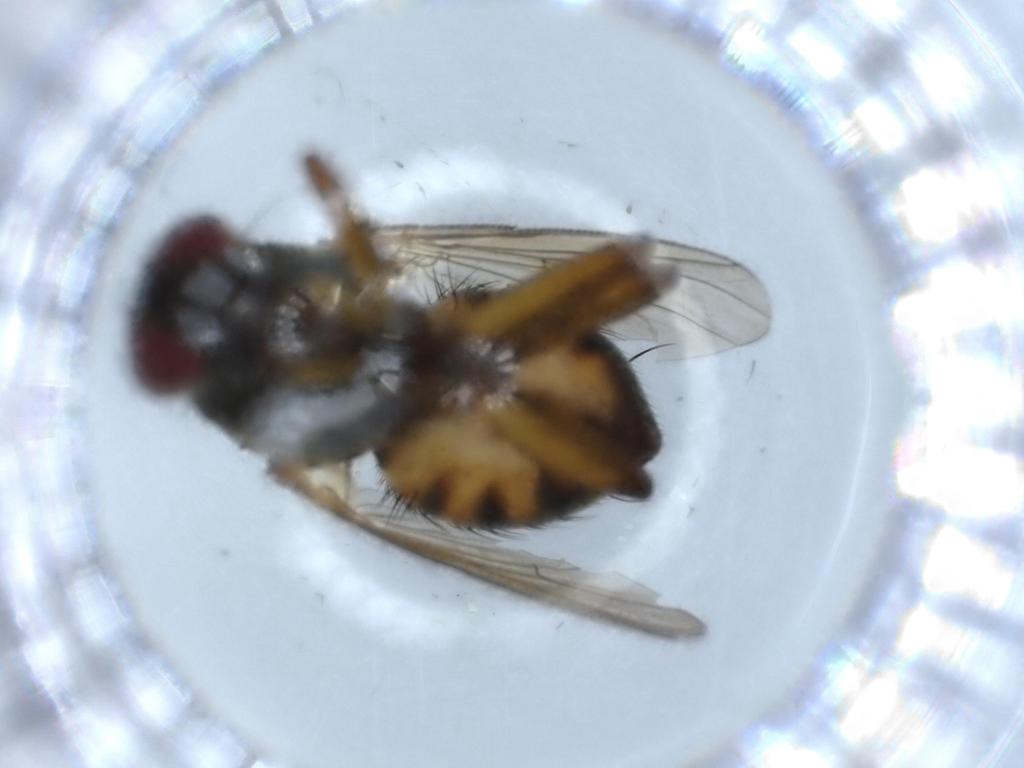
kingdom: Animalia
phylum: Arthropoda
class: Insecta
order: Diptera
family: Muscidae
